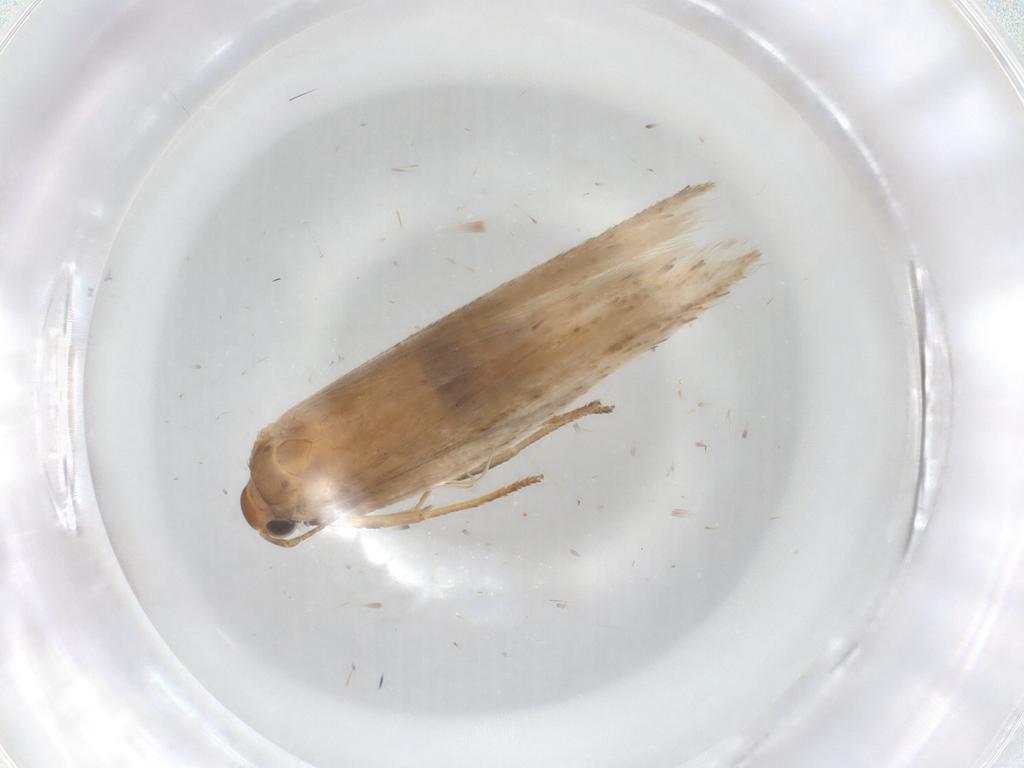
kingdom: Animalia
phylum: Arthropoda
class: Insecta
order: Lepidoptera
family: Gelechiidae
